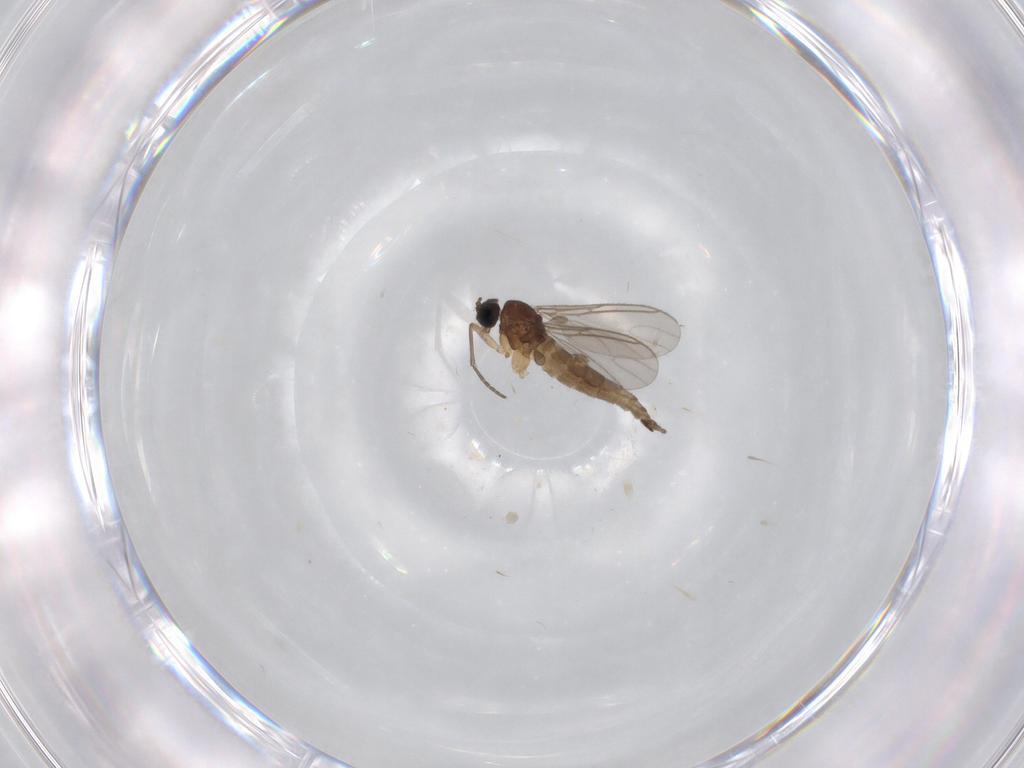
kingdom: Animalia
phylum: Arthropoda
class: Insecta
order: Diptera
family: Sciaridae
